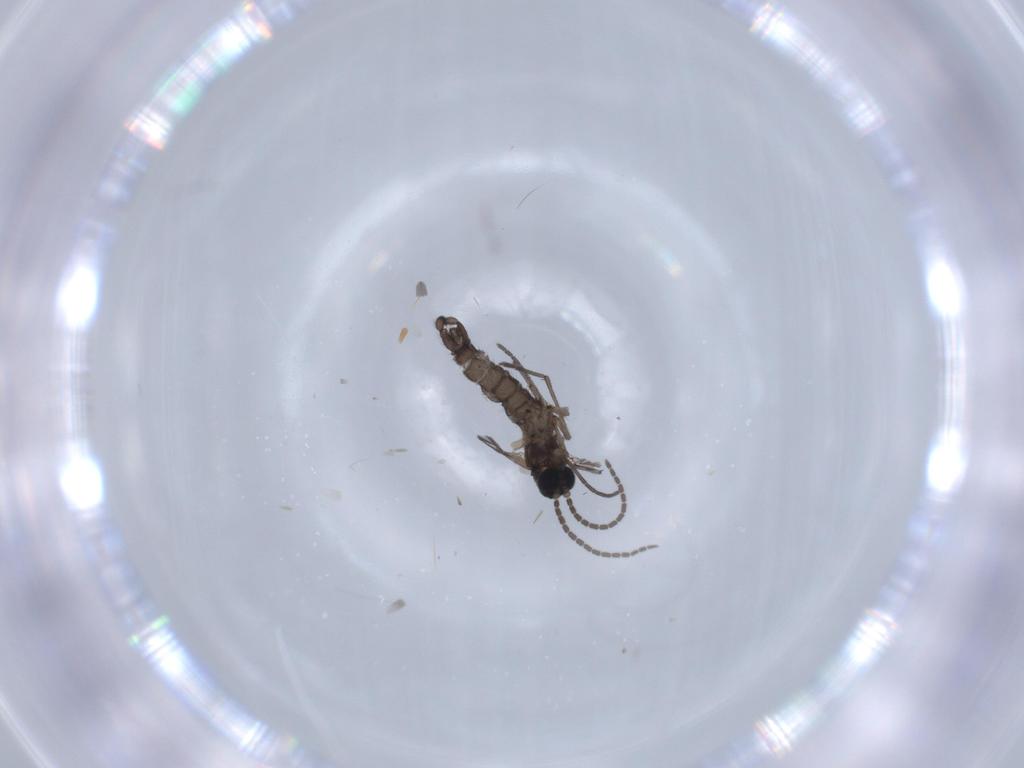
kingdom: Animalia
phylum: Arthropoda
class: Insecta
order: Diptera
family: Sciaridae
